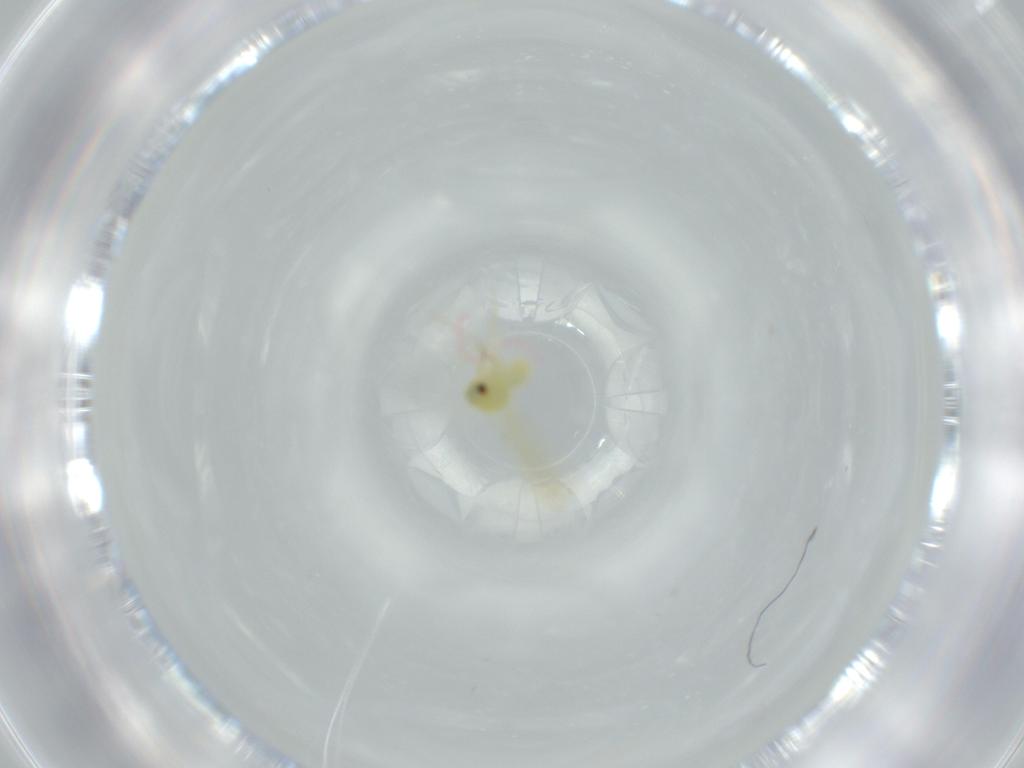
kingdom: Animalia
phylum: Arthropoda
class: Insecta
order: Hemiptera
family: Aleyrodidae
